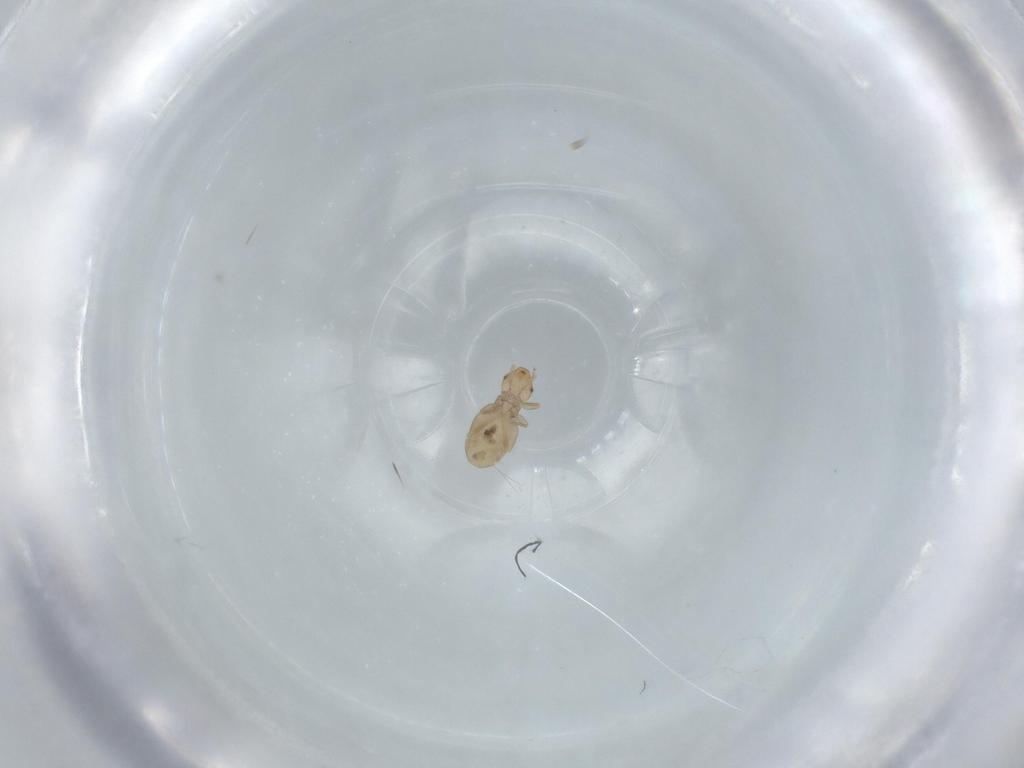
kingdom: Animalia
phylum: Arthropoda
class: Insecta
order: Psocodea
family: Liposcelididae
